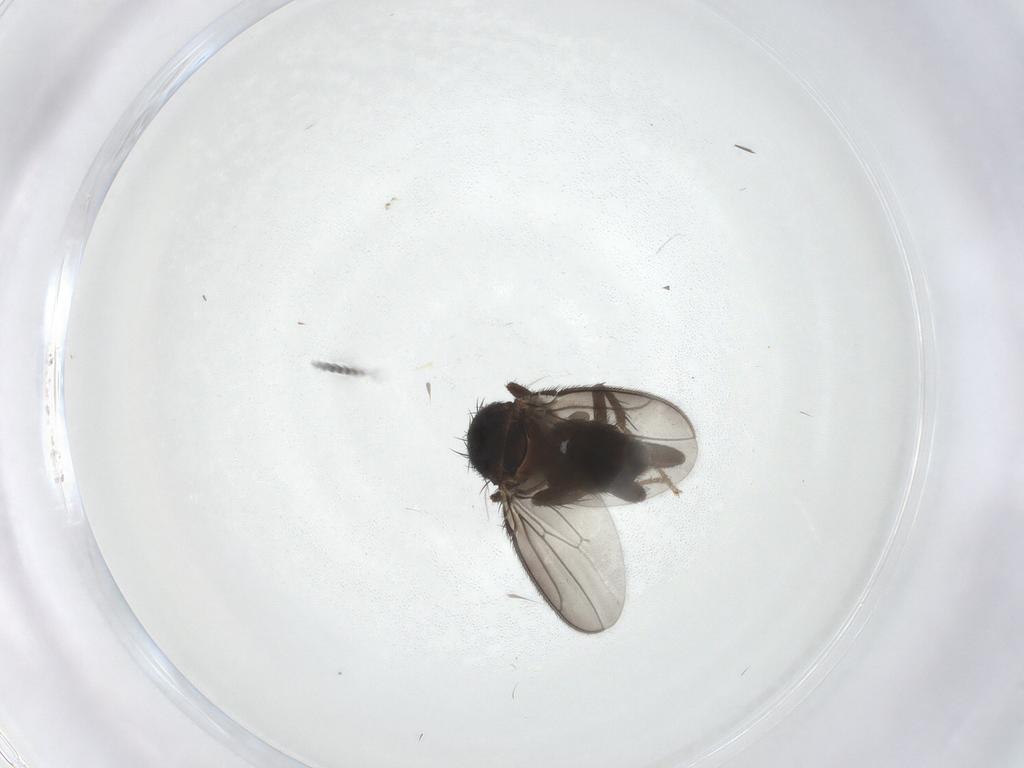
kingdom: Animalia
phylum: Arthropoda
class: Insecta
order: Diptera
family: Sphaeroceridae
